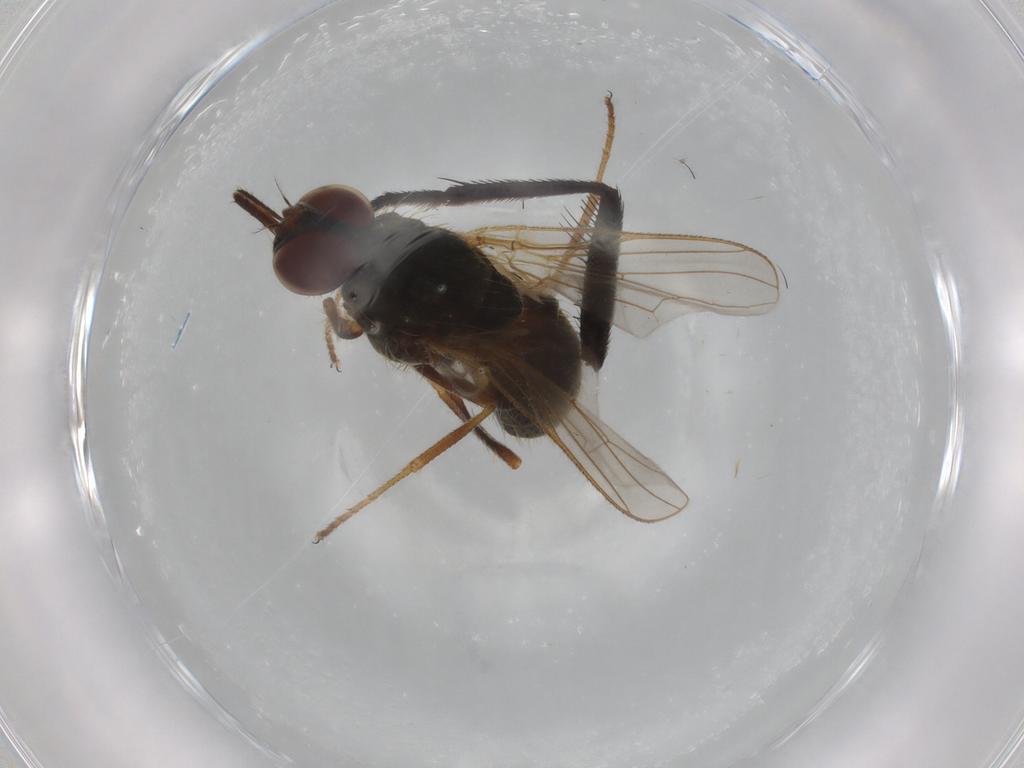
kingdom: Animalia
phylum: Arthropoda
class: Insecta
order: Diptera
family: Muscidae
